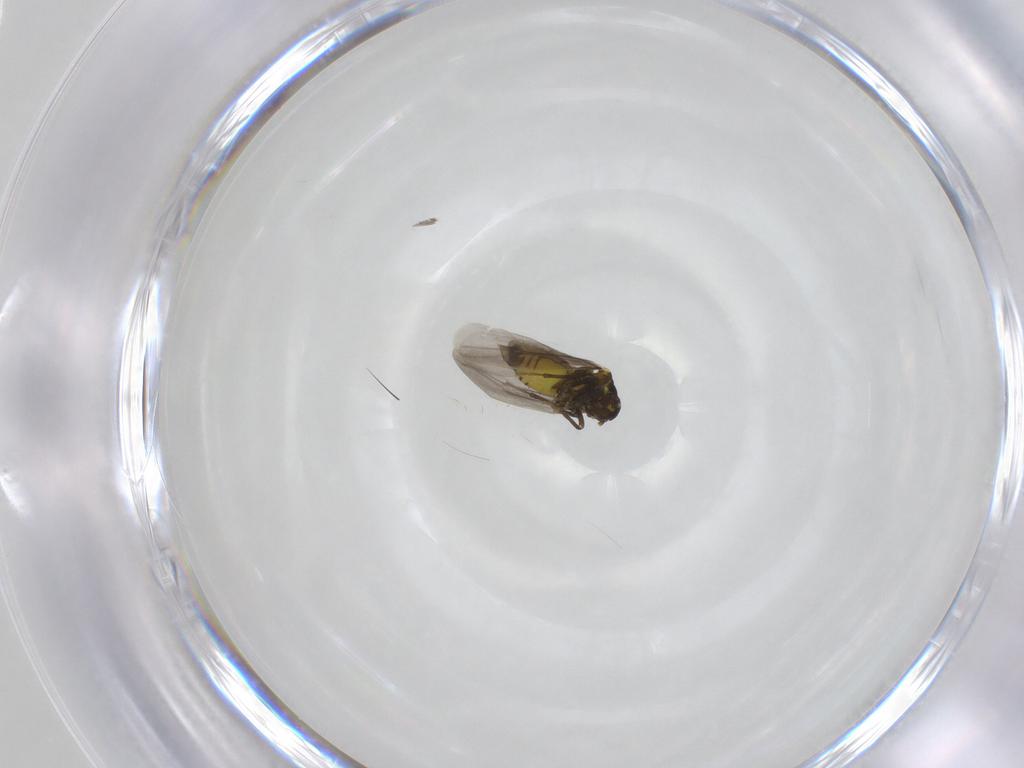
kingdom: Animalia
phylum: Arthropoda
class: Insecta
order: Hemiptera
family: Aleyrodidae
